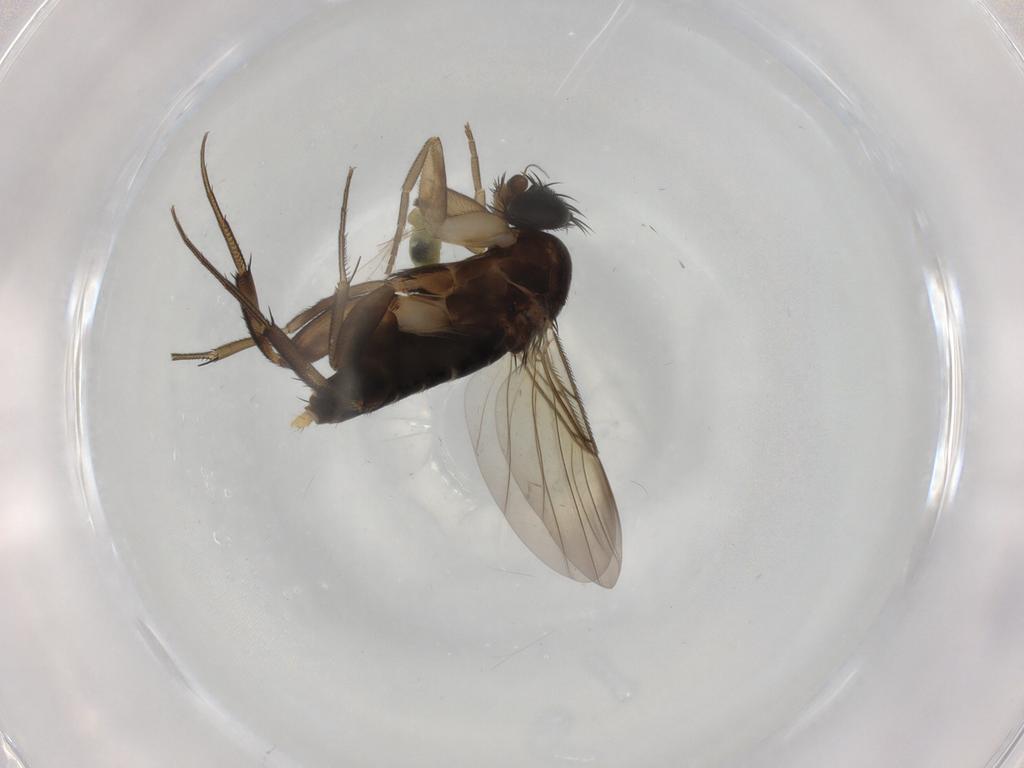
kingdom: Animalia
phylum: Arthropoda
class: Insecta
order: Diptera
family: Cecidomyiidae
